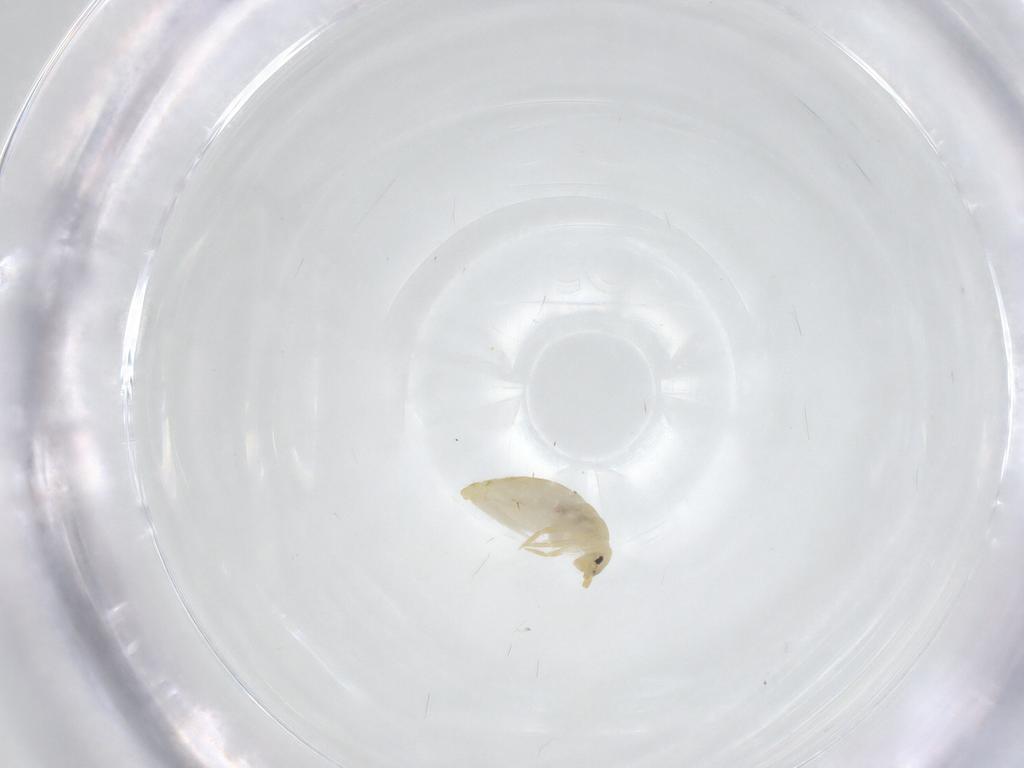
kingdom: Animalia
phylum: Arthropoda
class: Collembola
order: Entomobryomorpha
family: Entomobryidae
